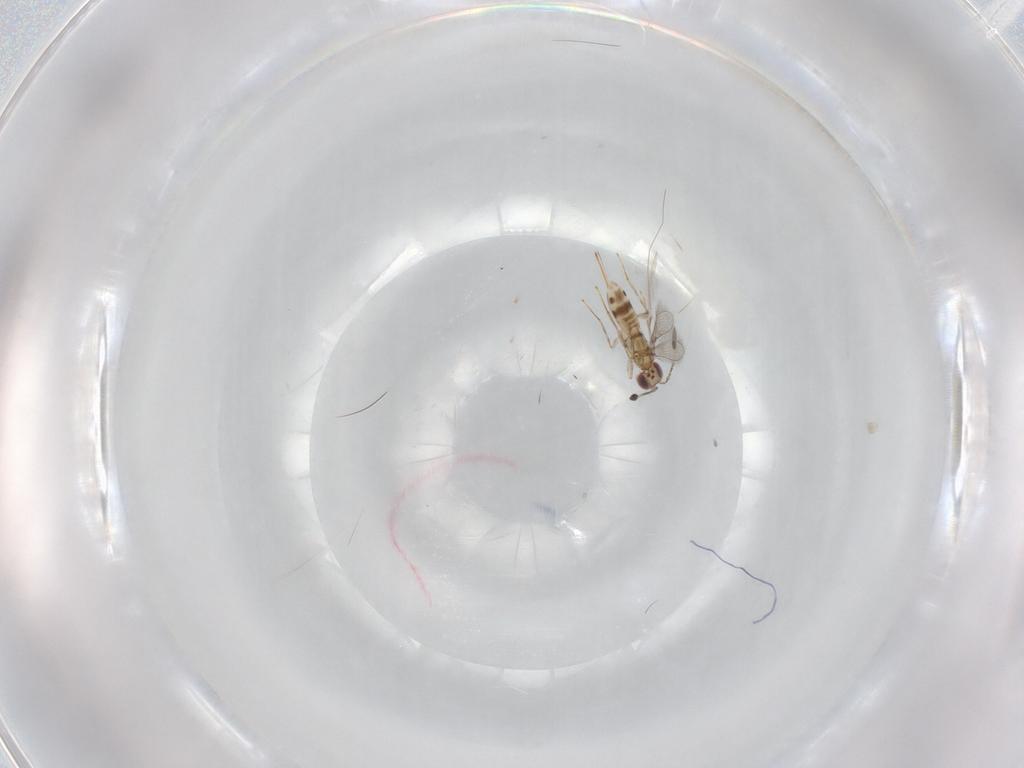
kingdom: Animalia
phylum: Arthropoda
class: Insecta
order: Hymenoptera
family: Mymaridae
